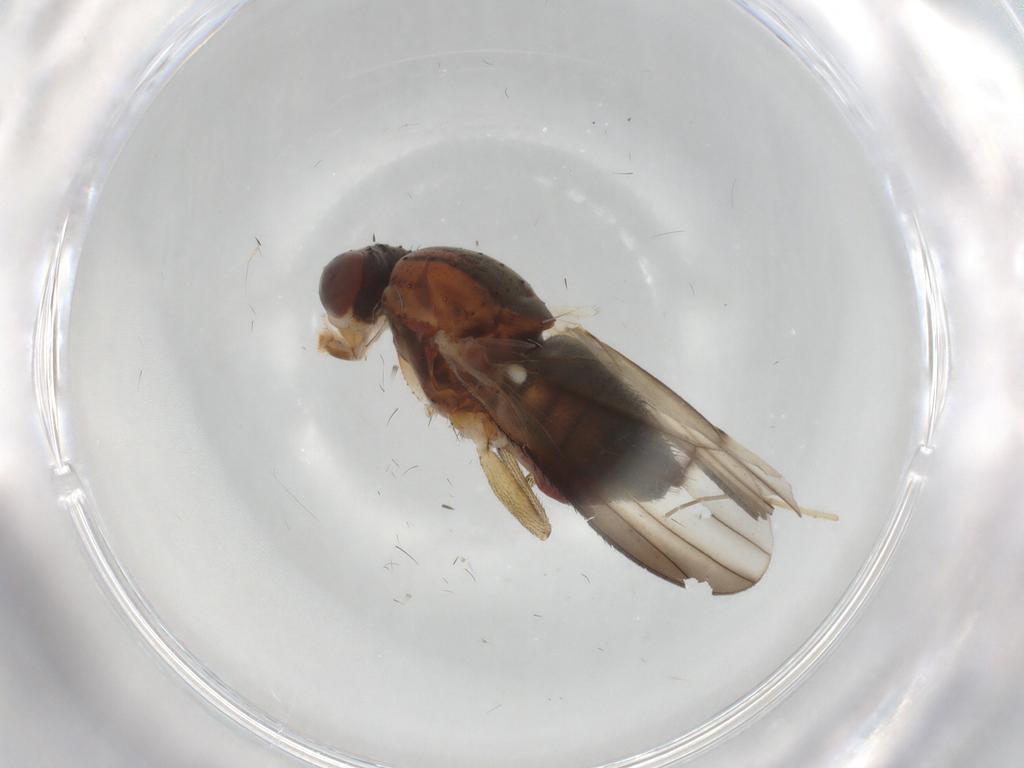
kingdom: Animalia
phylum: Arthropoda
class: Insecta
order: Diptera
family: Heleomyzidae
